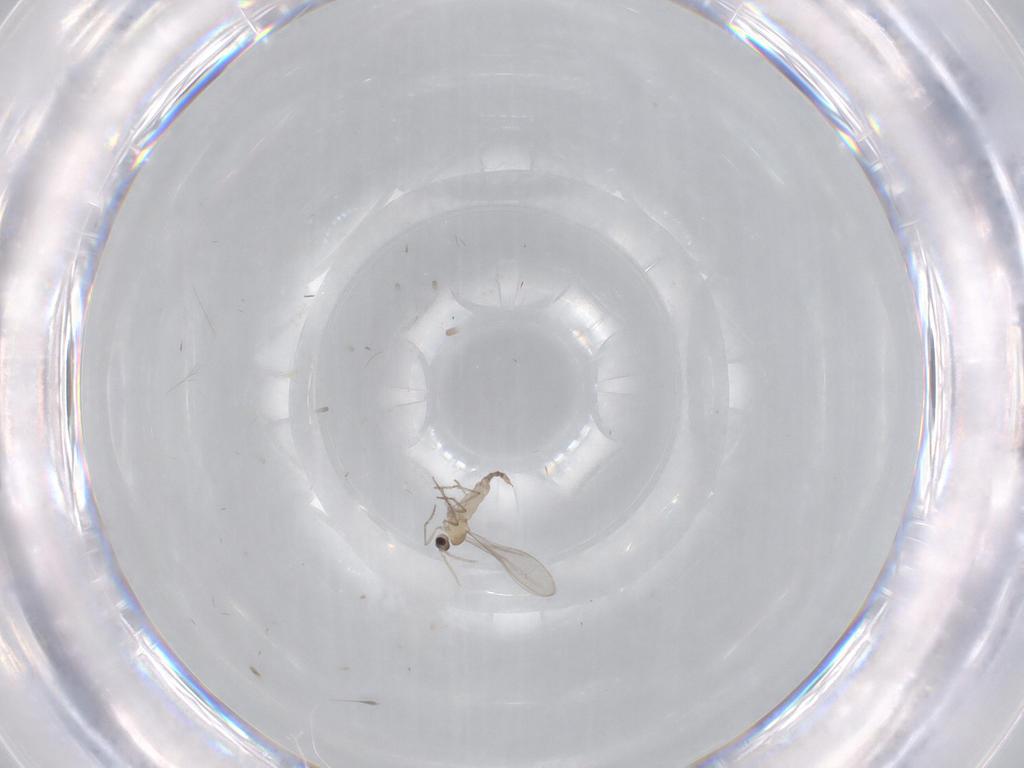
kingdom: Animalia
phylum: Arthropoda
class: Insecta
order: Diptera
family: Cecidomyiidae
